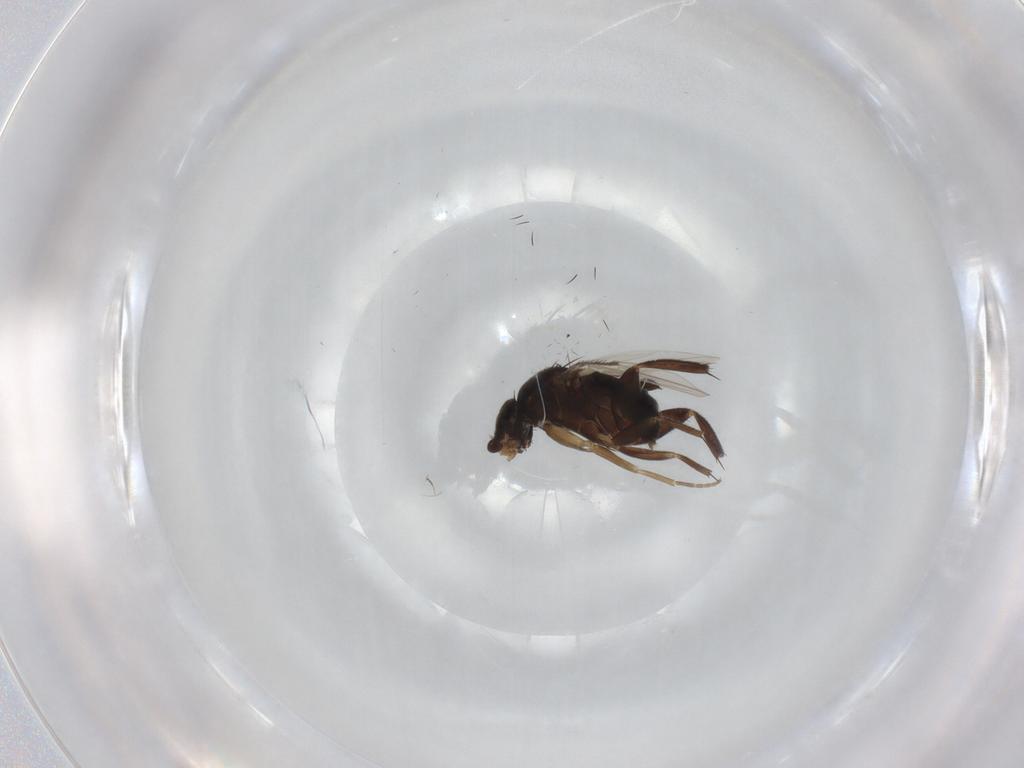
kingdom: Animalia
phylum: Arthropoda
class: Insecta
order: Diptera
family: Phoridae
